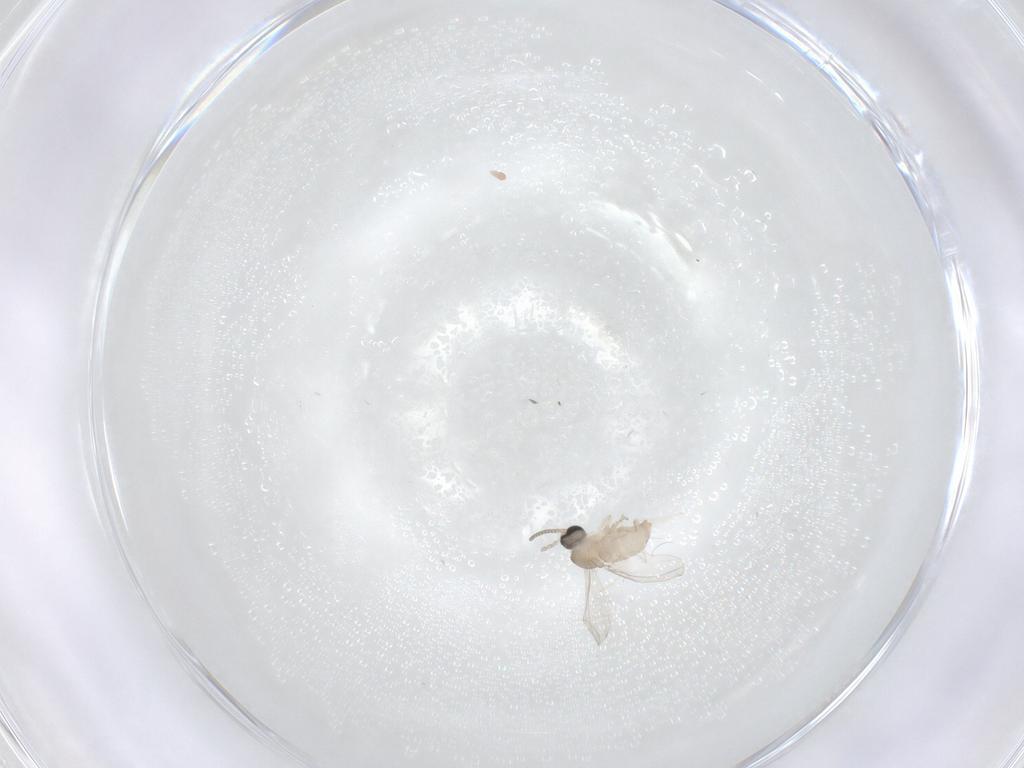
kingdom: Animalia
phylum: Arthropoda
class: Insecta
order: Diptera
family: Cecidomyiidae
